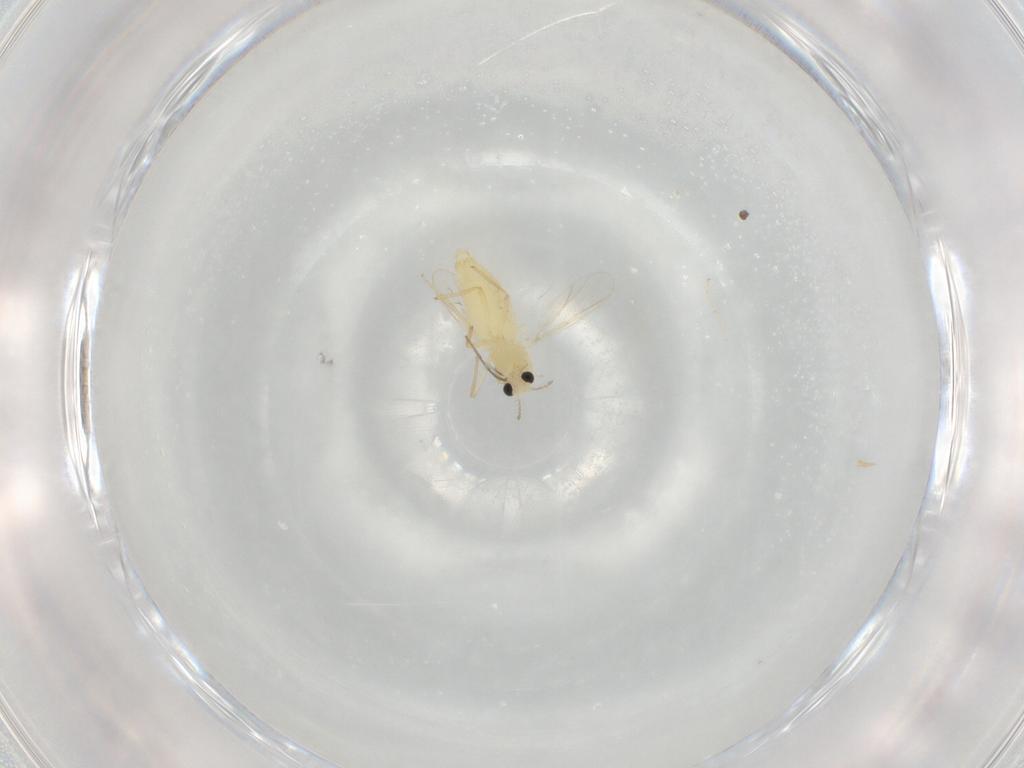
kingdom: Animalia
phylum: Arthropoda
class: Insecta
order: Diptera
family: Chironomidae
